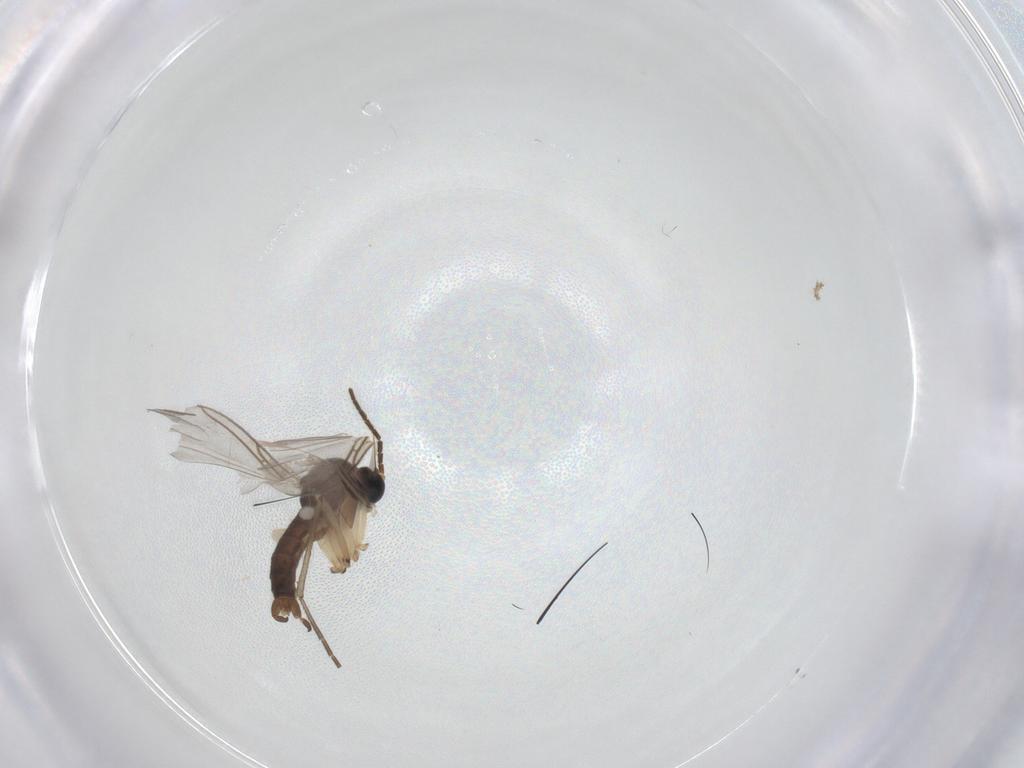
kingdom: Animalia
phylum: Arthropoda
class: Insecta
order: Diptera
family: Sciaridae
